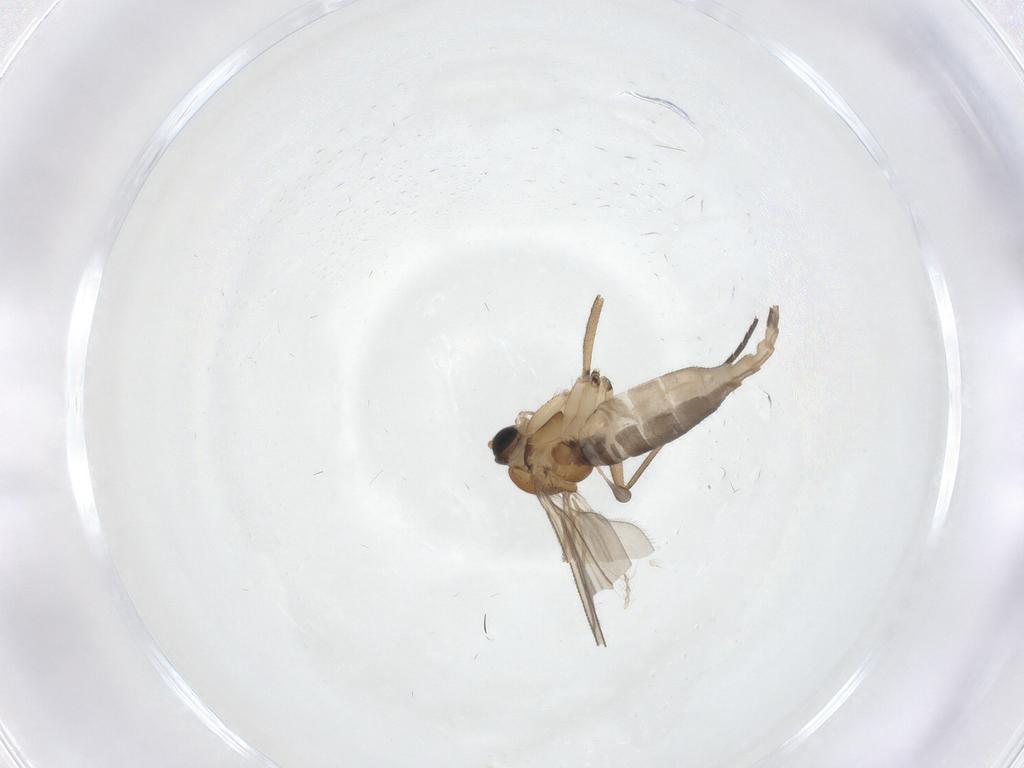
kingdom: Animalia
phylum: Arthropoda
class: Insecta
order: Diptera
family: Sciaridae
